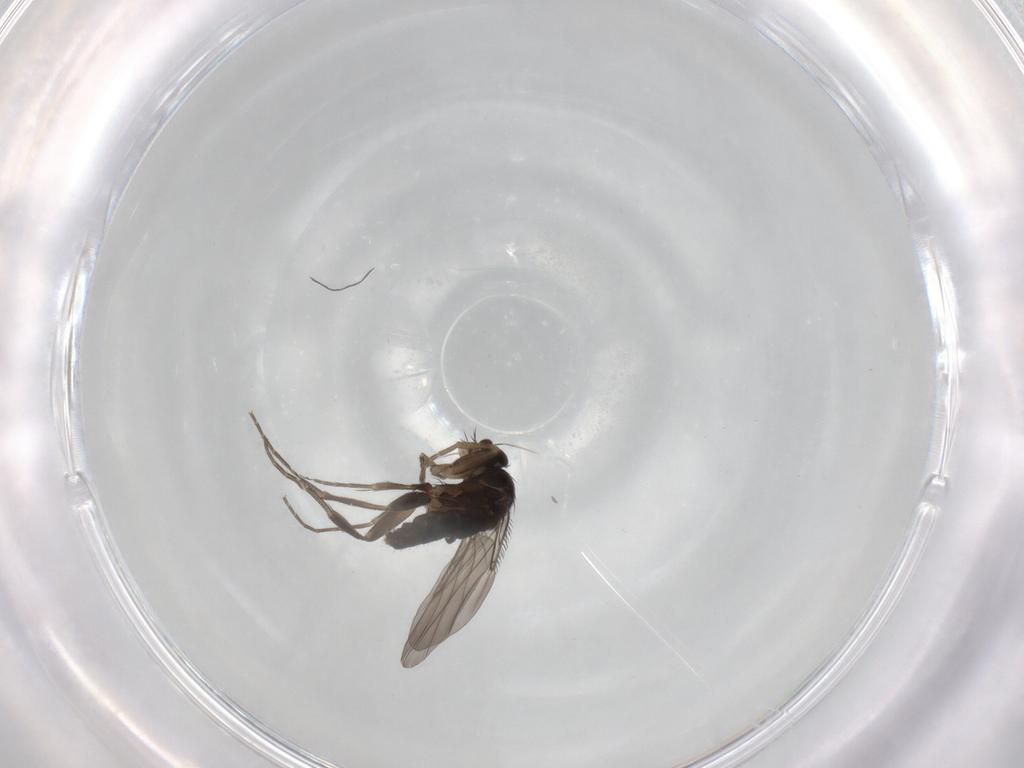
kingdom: Animalia
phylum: Arthropoda
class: Insecta
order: Diptera
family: Phoridae
